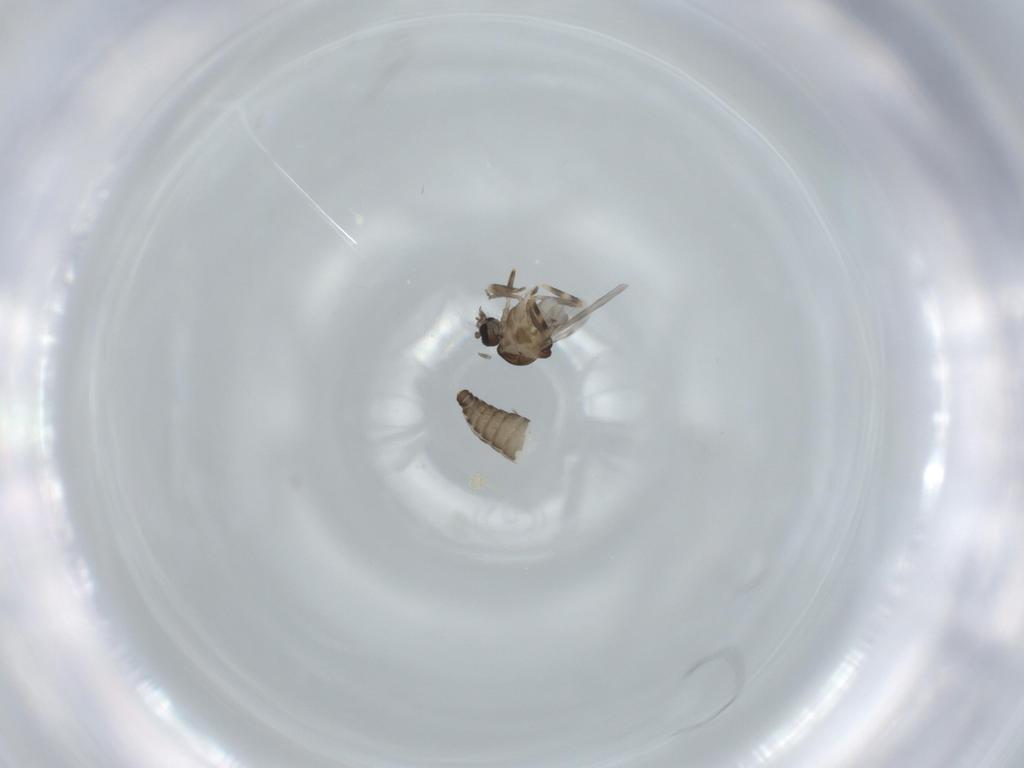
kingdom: Animalia
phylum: Arthropoda
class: Insecta
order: Diptera
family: Ceratopogonidae
